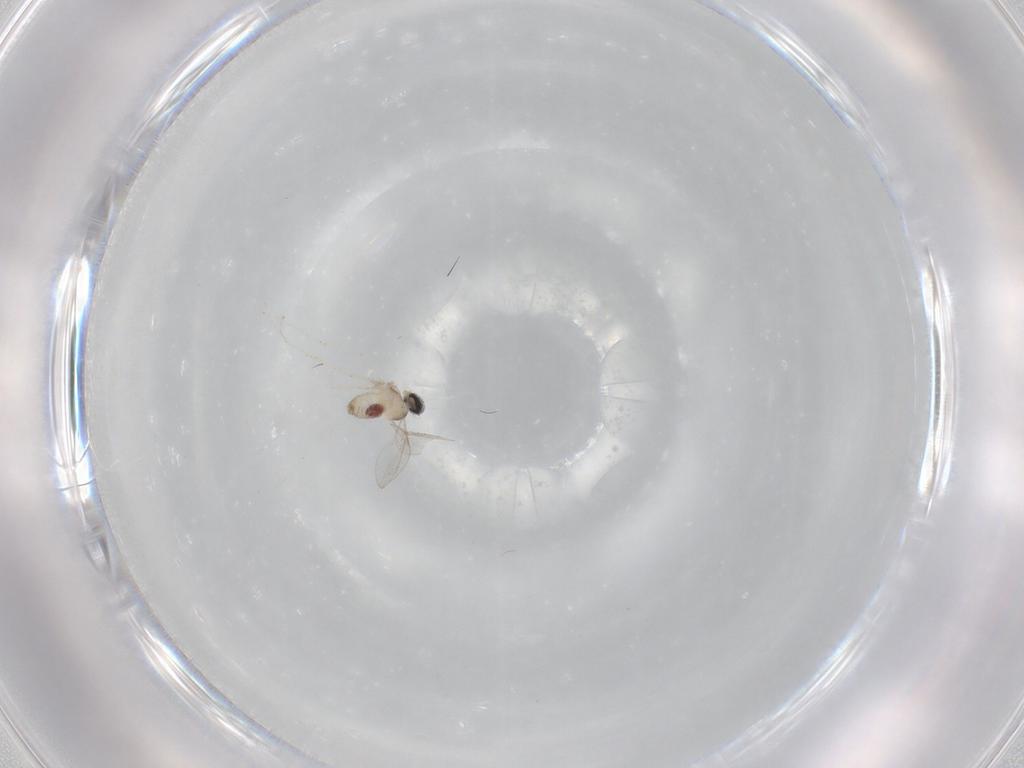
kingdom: Animalia
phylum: Arthropoda
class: Insecta
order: Diptera
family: Cecidomyiidae
